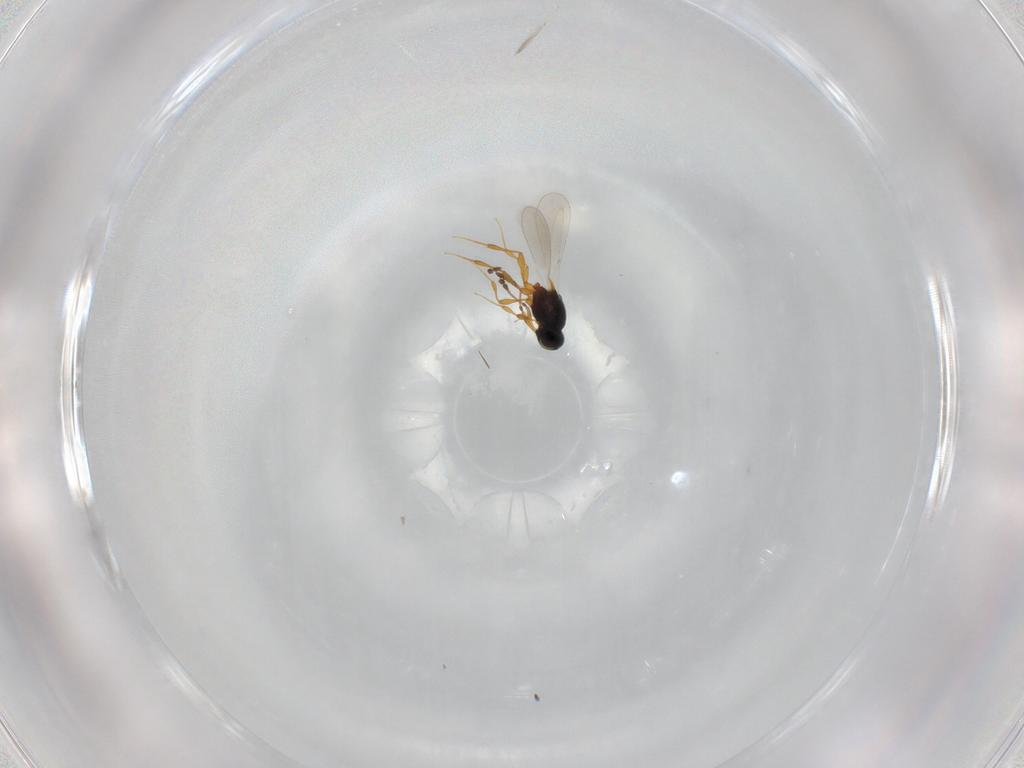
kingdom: Animalia
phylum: Arthropoda
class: Insecta
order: Hymenoptera
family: Platygastridae
